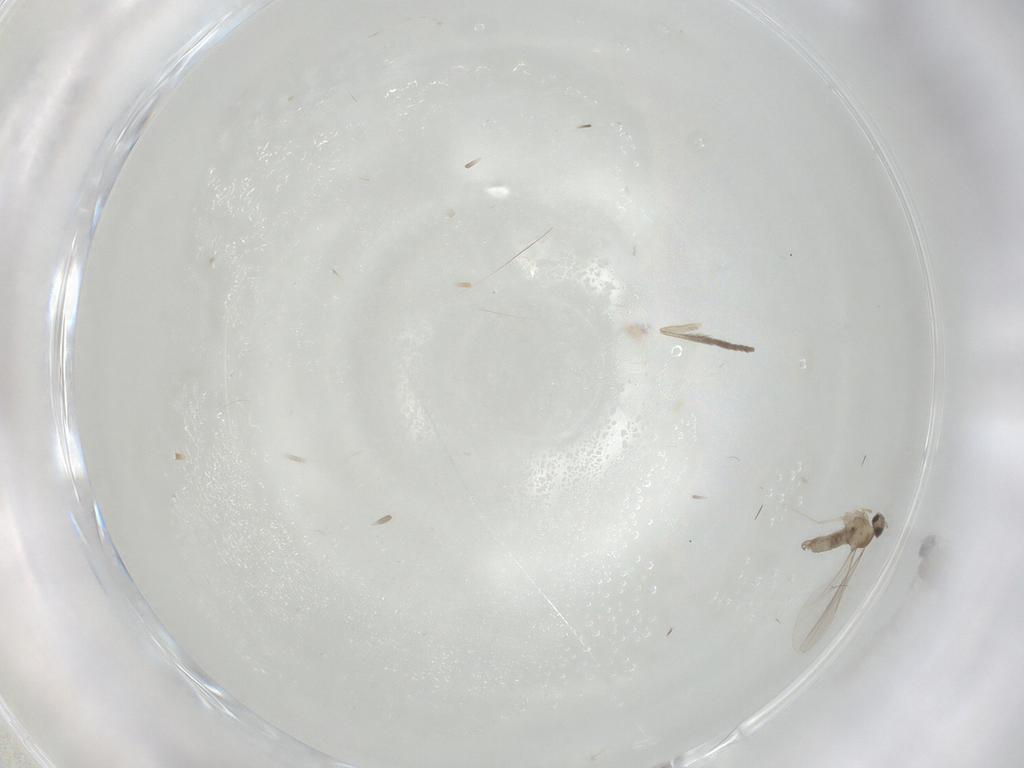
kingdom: Animalia
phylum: Arthropoda
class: Insecta
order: Diptera
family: Cecidomyiidae
